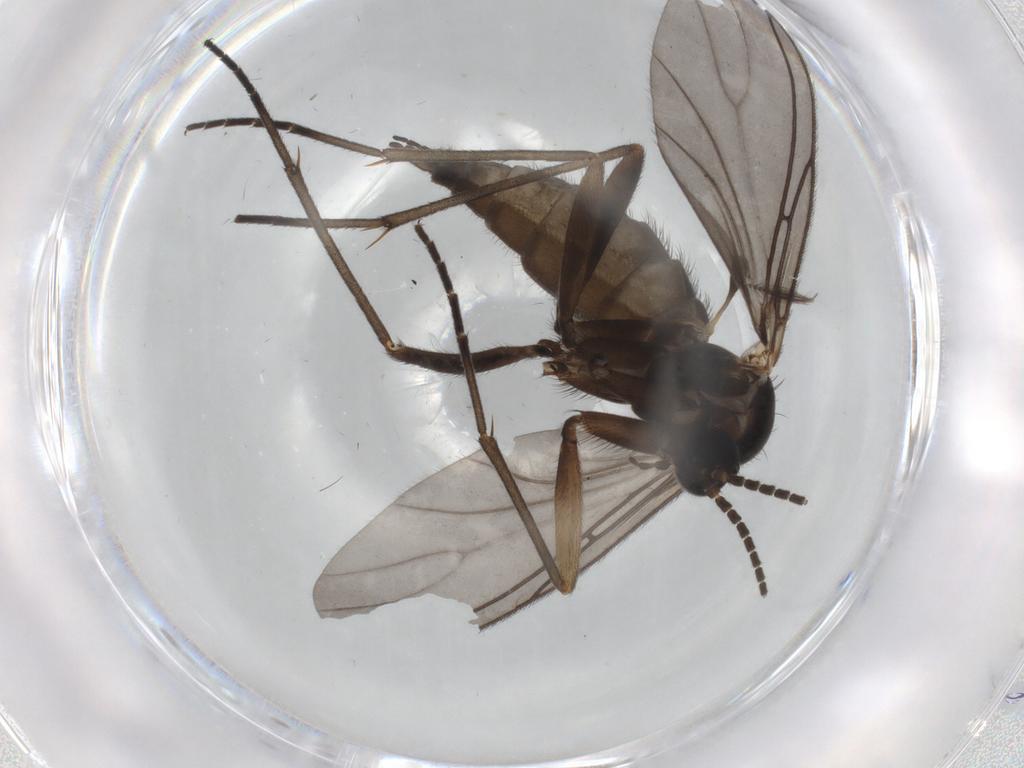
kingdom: Animalia
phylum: Arthropoda
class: Insecta
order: Diptera
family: Sciaridae
